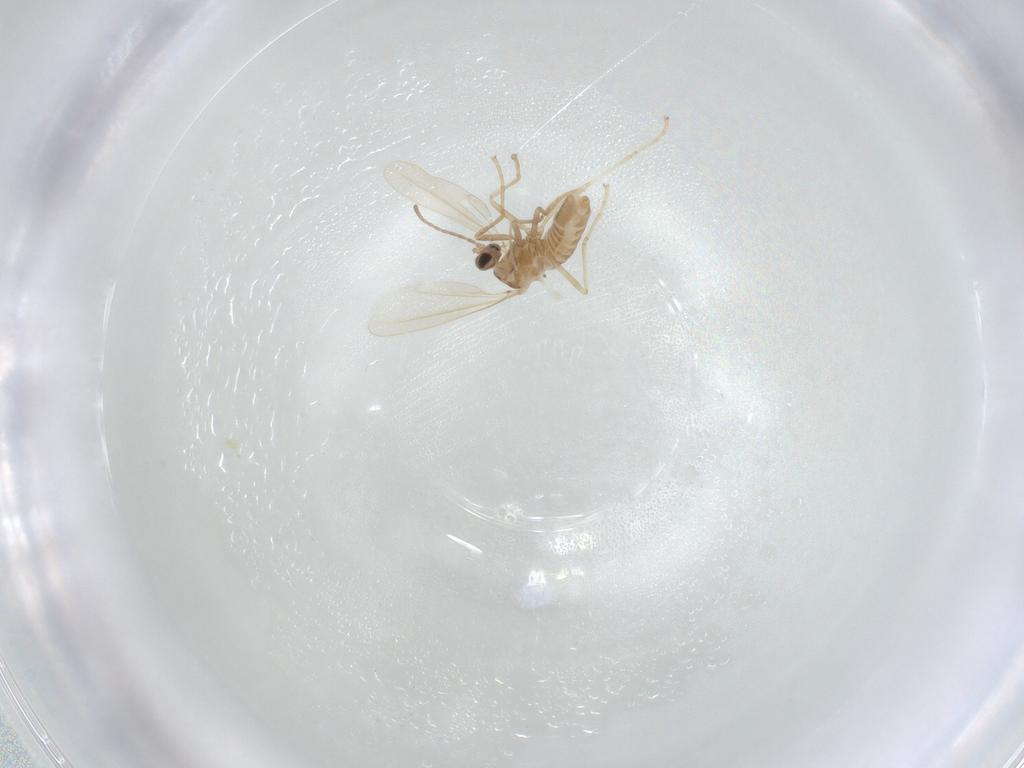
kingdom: Animalia
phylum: Arthropoda
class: Insecta
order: Diptera
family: Cecidomyiidae
